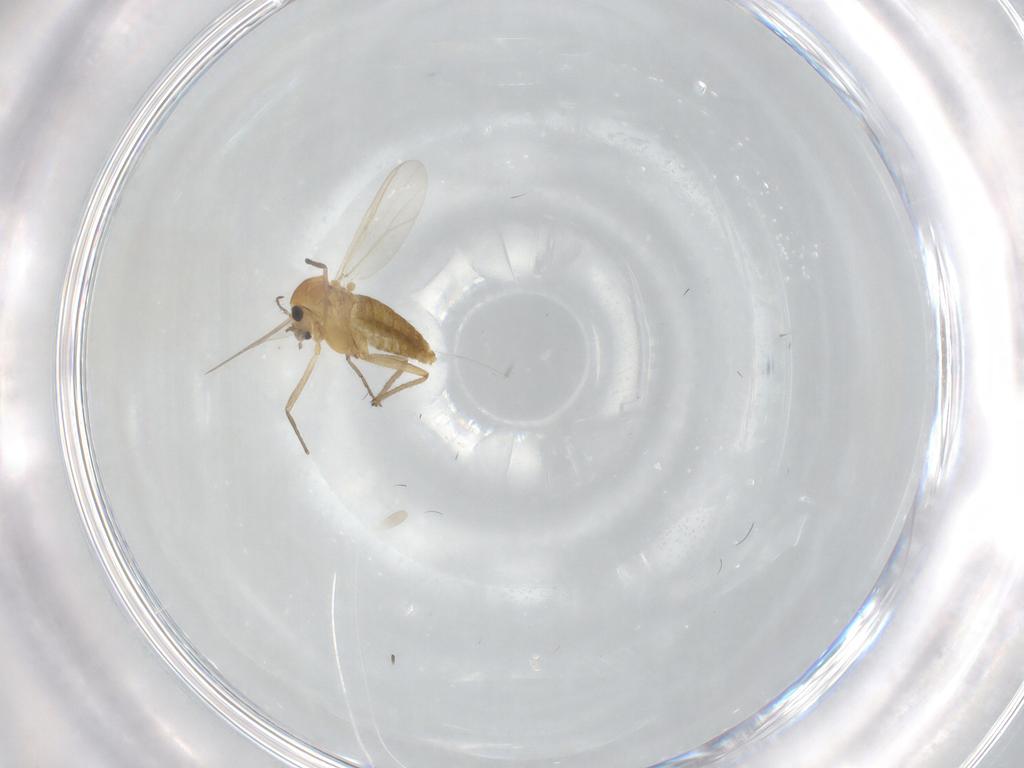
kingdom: Animalia
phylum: Arthropoda
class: Insecta
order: Diptera
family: Chironomidae
